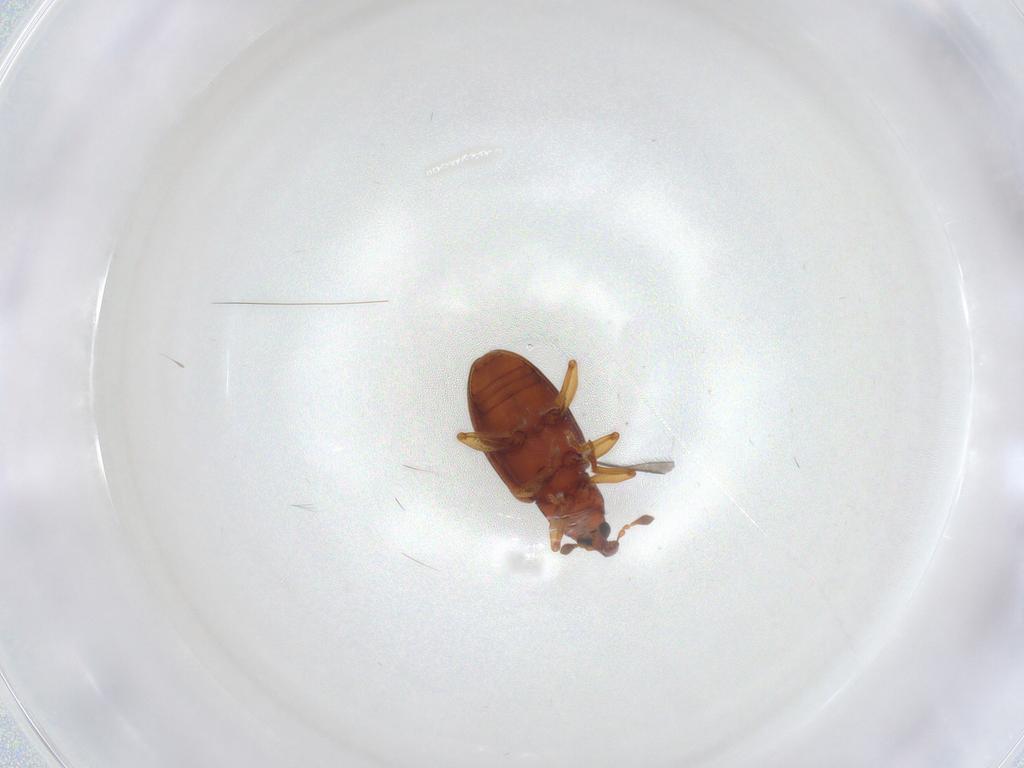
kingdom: Animalia
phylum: Arthropoda
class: Insecta
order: Coleoptera
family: Curculionidae
